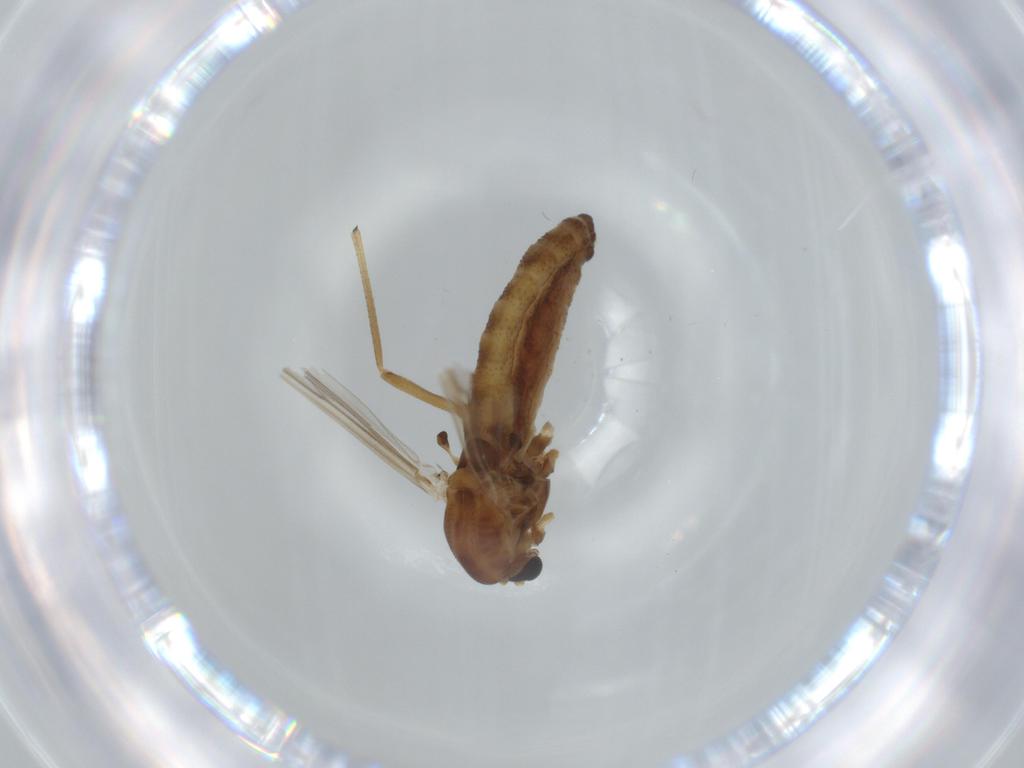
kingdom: Animalia
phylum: Arthropoda
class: Insecta
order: Diptera
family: Chironomidae
